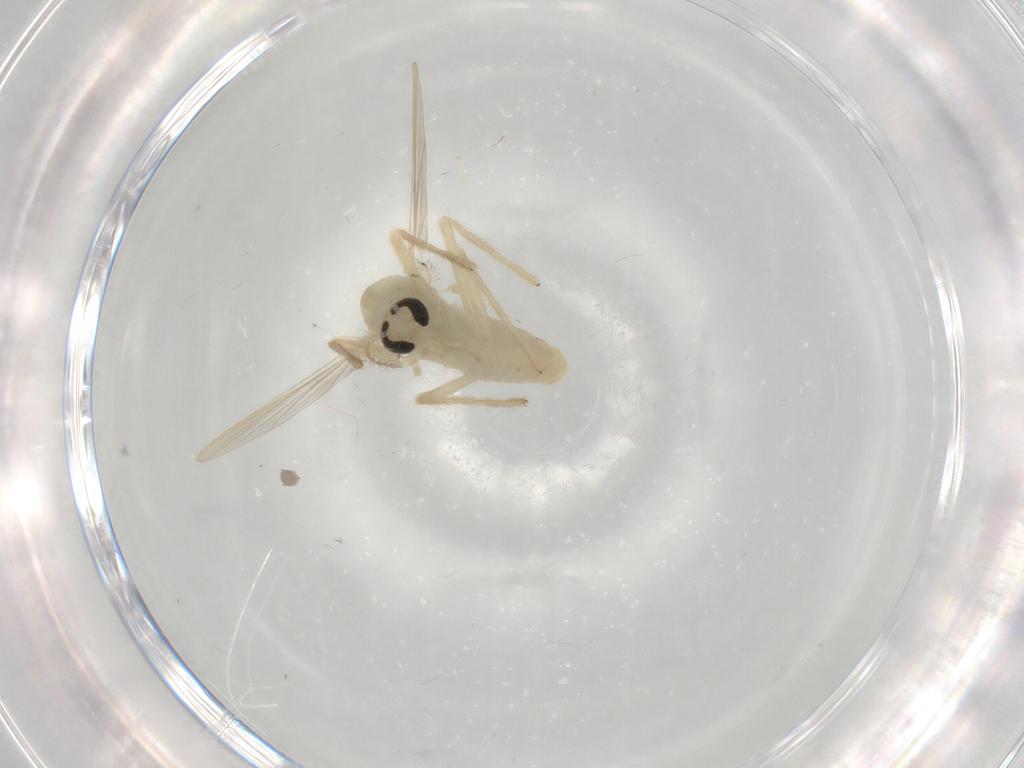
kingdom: Animalia
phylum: Arthropoda
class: Insecta
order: Diptera
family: Chironomidae
